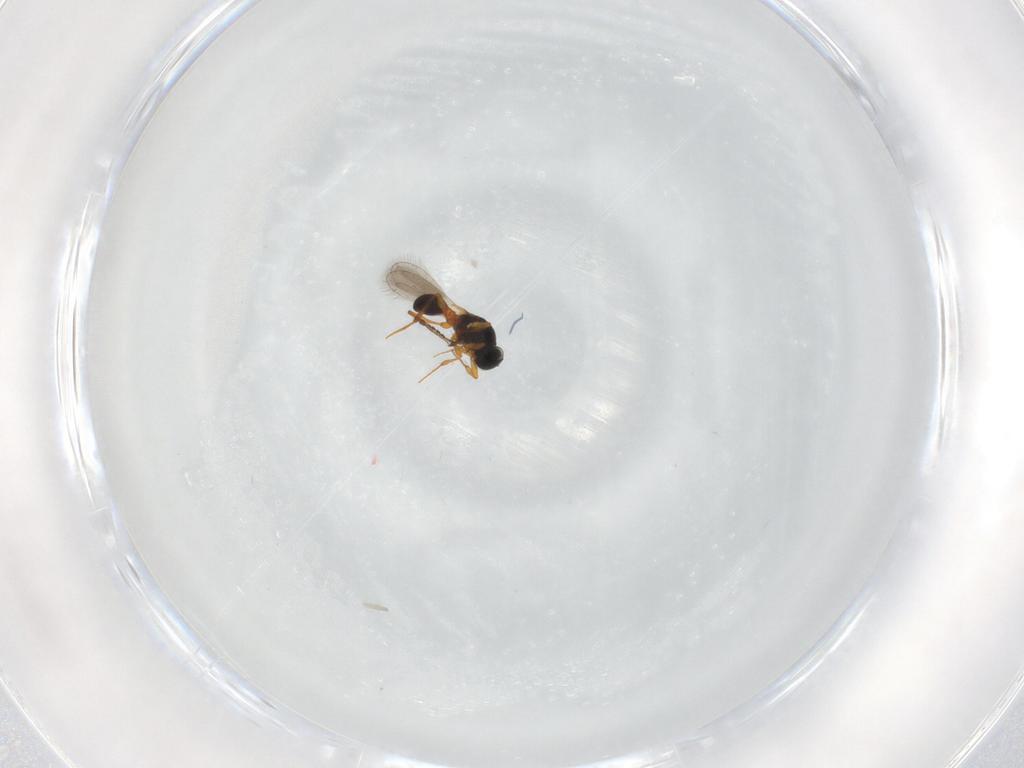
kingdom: Animalia
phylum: Arthropoda
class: Insecta
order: Hymenoptera
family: Platygastridae
